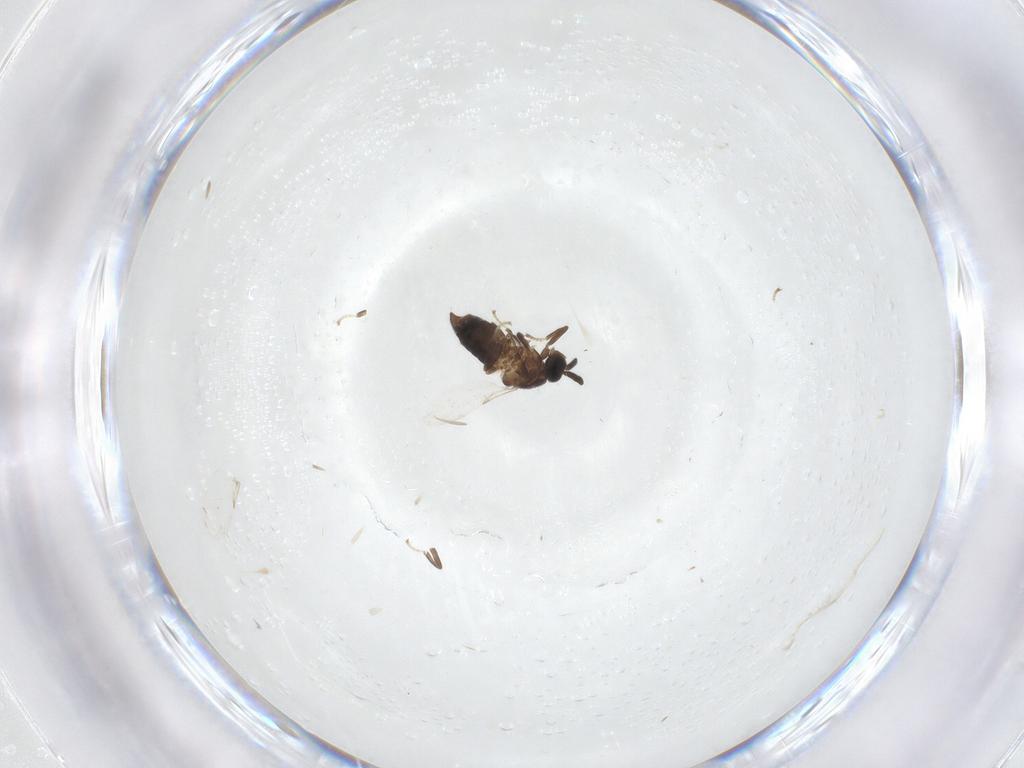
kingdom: Animalia
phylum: Arthropoda
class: Insecta
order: Diptera
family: Scatopsidae
